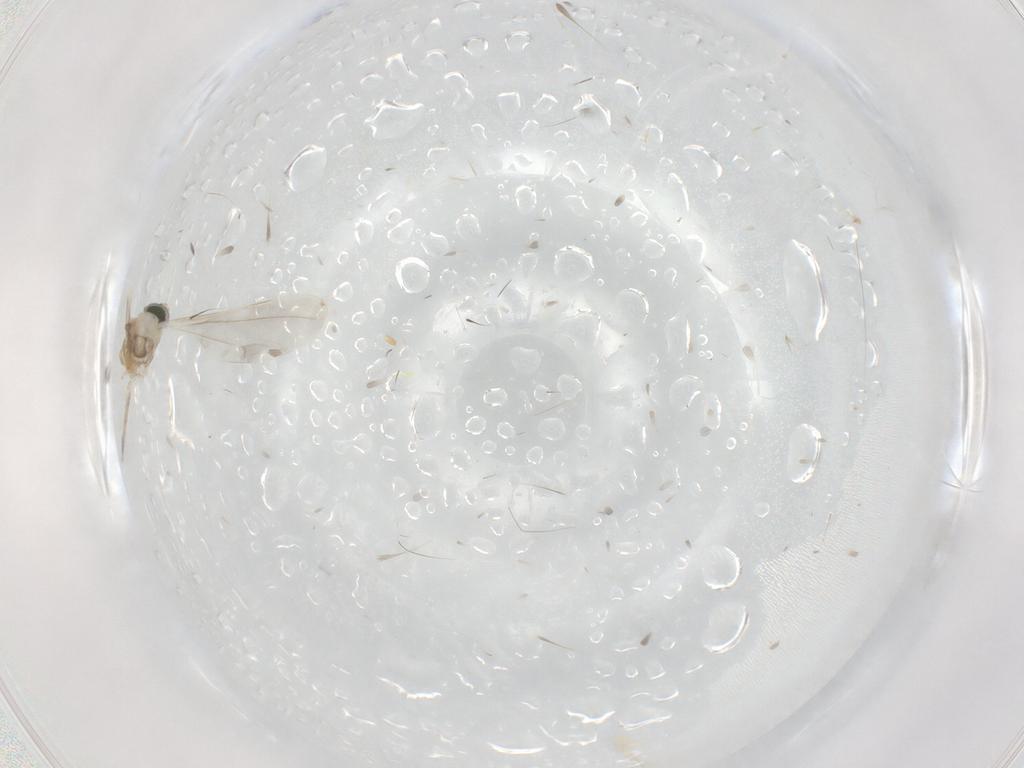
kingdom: Animalia
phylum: Arthropoda
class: Insecta
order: Diptera
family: Cecidomyiidae
